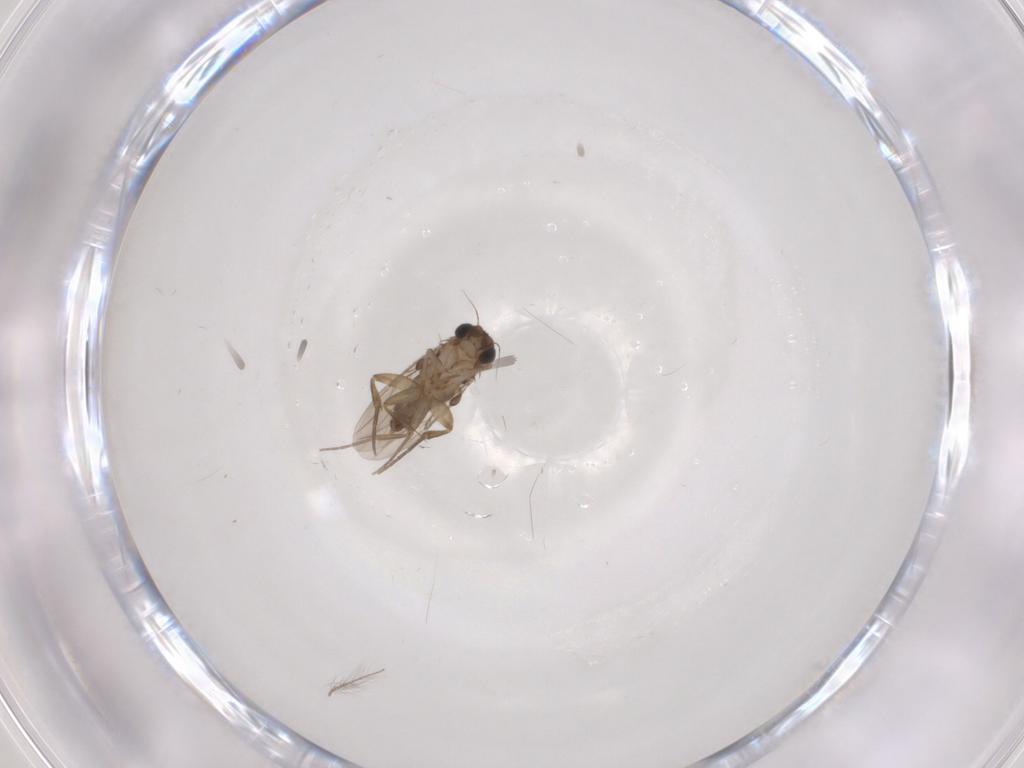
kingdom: Animalia
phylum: Arthropoda
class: Insecta
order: Diptera
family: Phoridae
